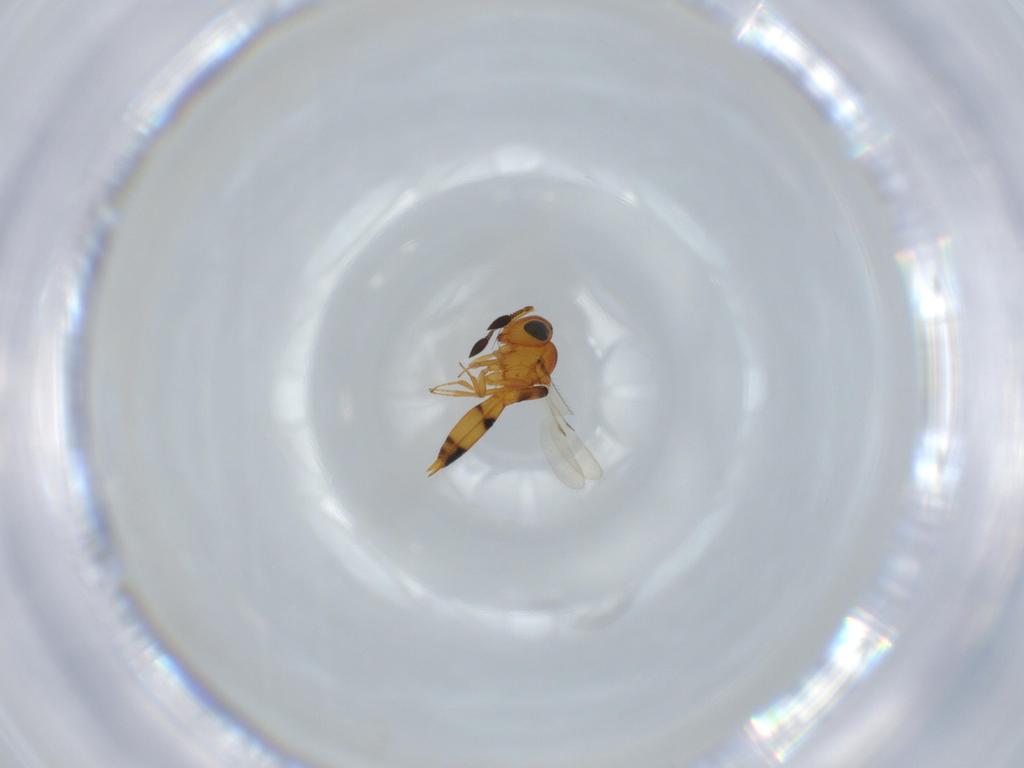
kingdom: Animalia
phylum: Arthropoda
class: Insecta
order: Hymenoptera
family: Scelionidae
